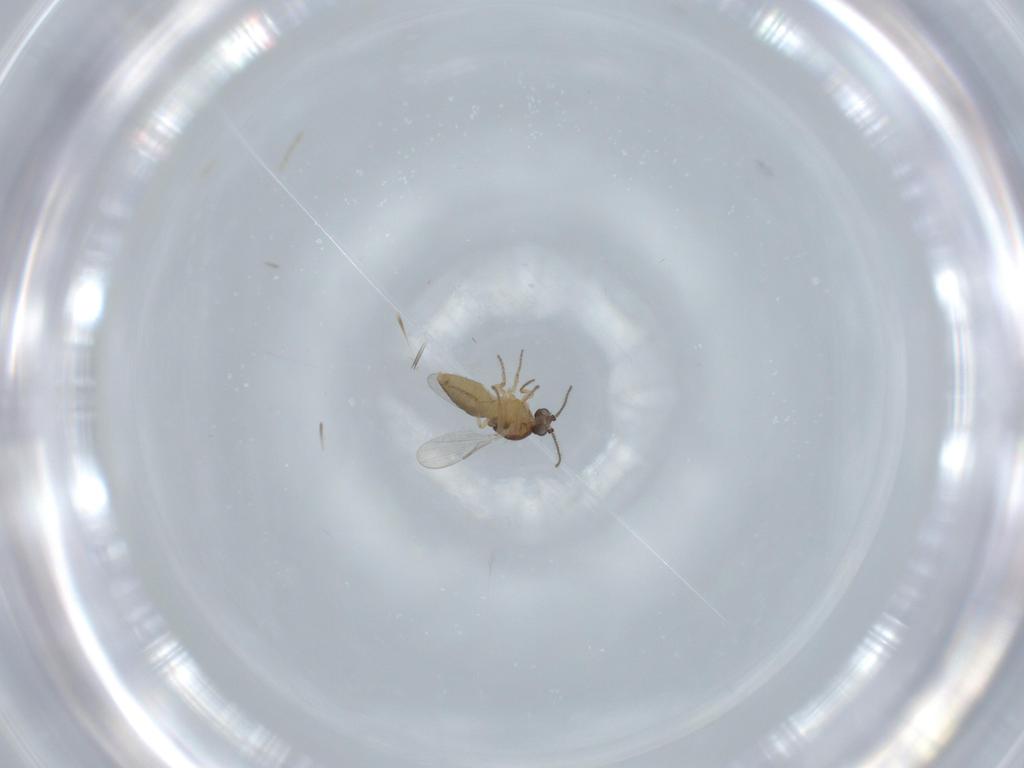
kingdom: Animalia
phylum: Arthropoda
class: Insecta
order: Diptera
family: Ceratopogonidae
